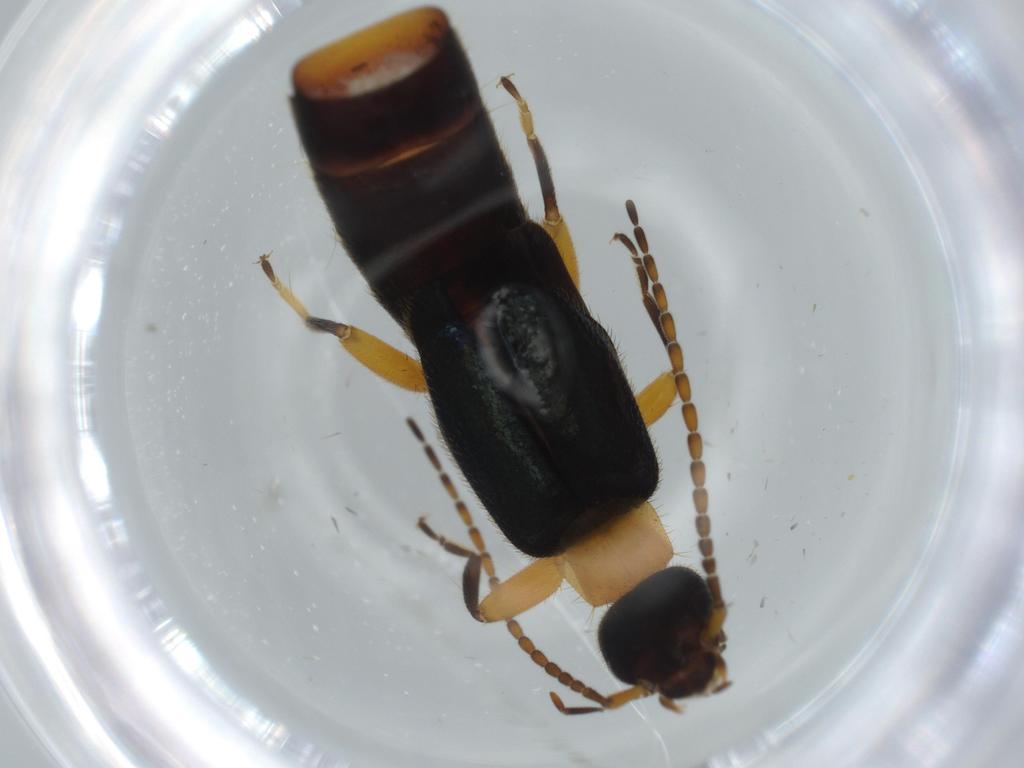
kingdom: Animalia
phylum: Arthropoda
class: Insecta
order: Dermaptera
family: Forficulidae
